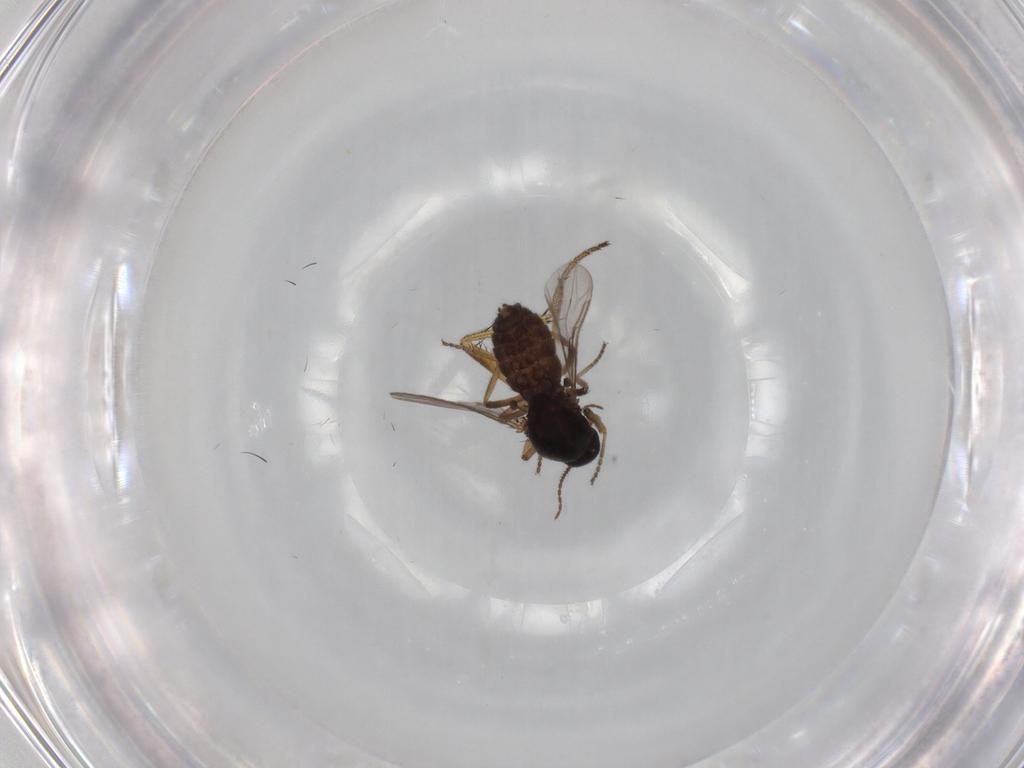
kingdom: Animalia
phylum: Arthropoda
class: Insecta
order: Diptera
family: Ceratopogonidae
